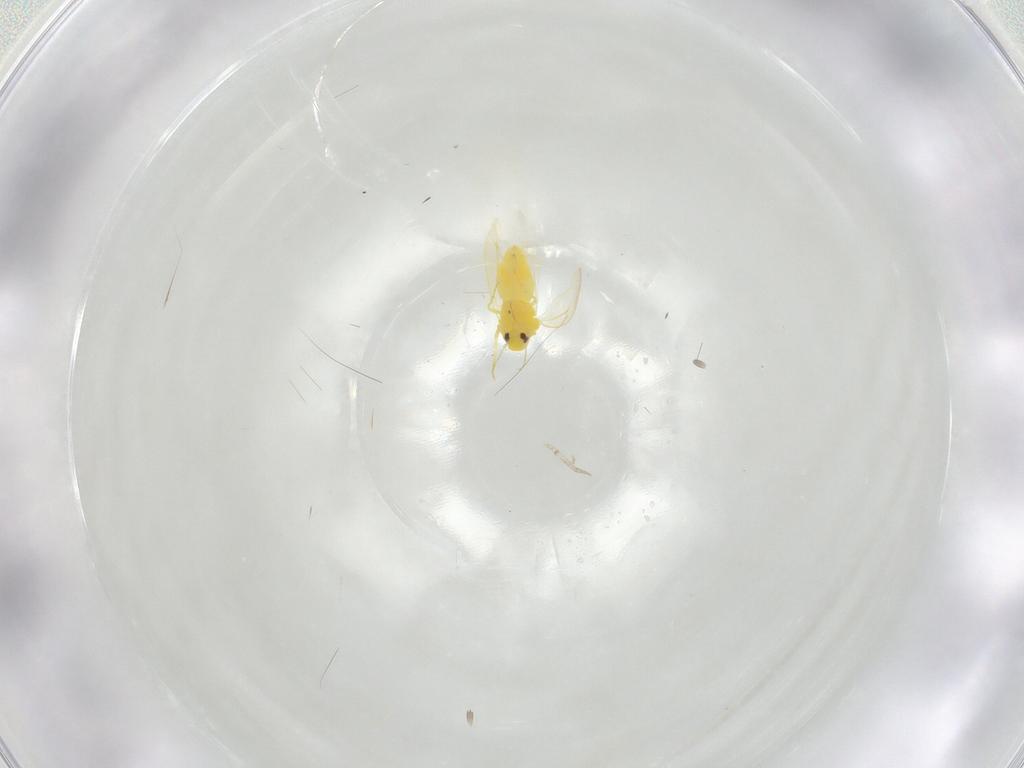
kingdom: Animalia
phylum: Arthropoda
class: Insecta
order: Hemiptera
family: Aleyrodidae
